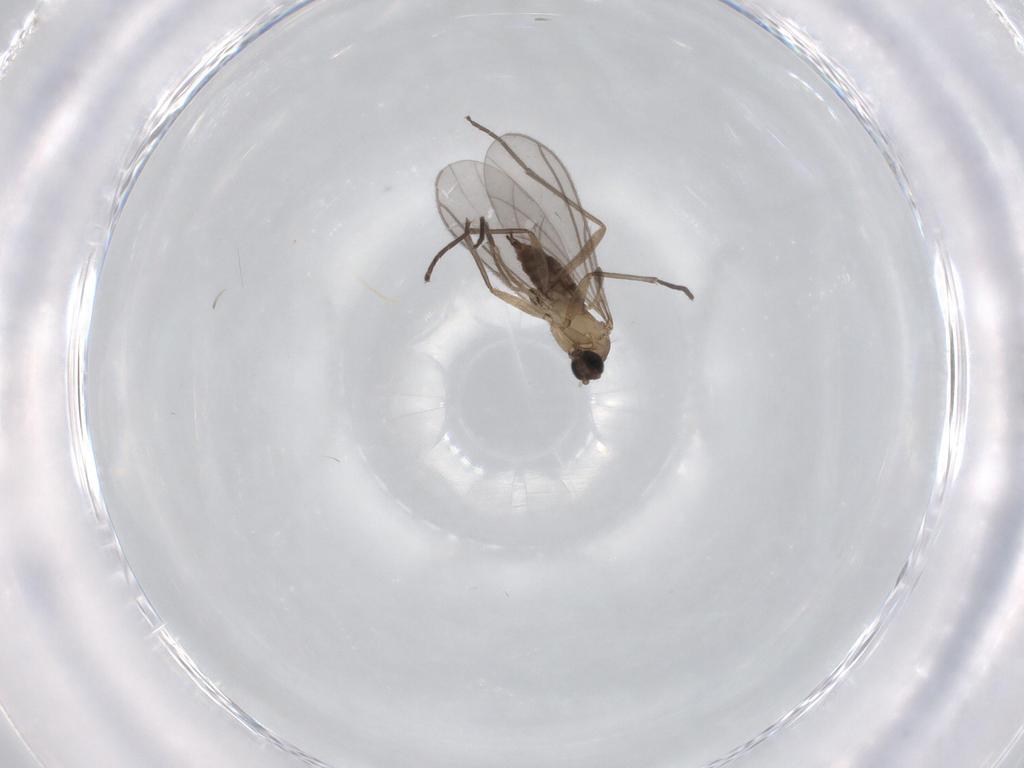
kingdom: Animalia
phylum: Arthropoda
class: Insecta
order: Diptera
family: Sciaridae
